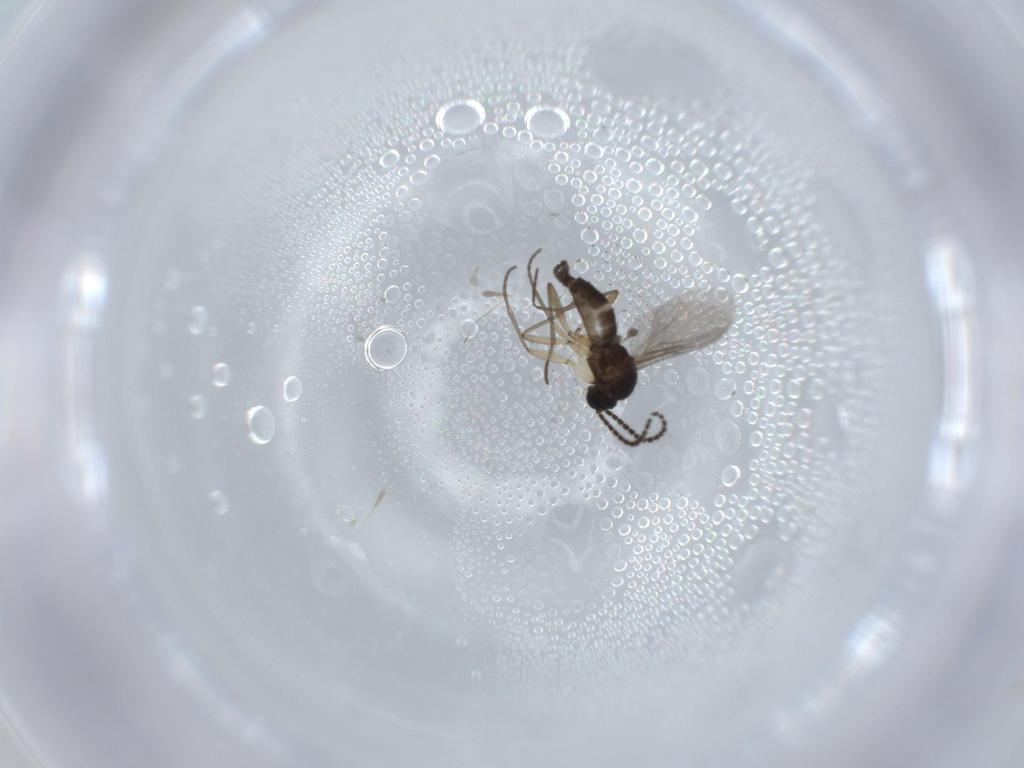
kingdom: Animalia
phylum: Arthropoda
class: Insecta
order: Diptera
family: Sciaridae
